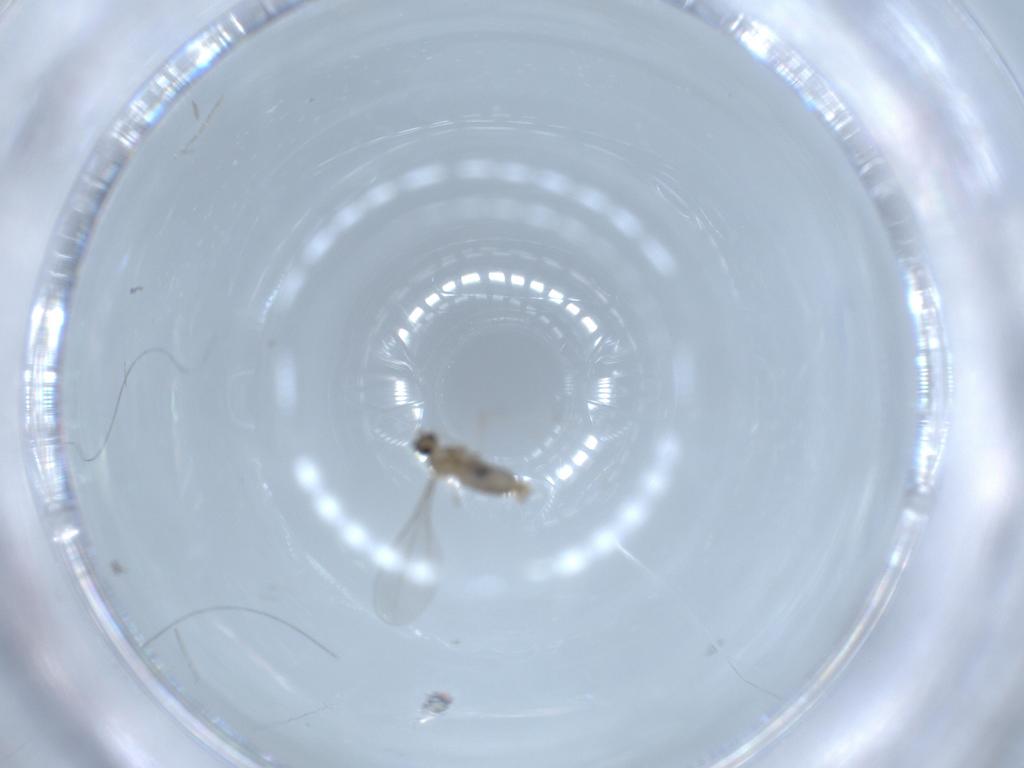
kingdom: Animalia
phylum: Arthropoda
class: Insecta
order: Diptera
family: Cecidomyiidae
